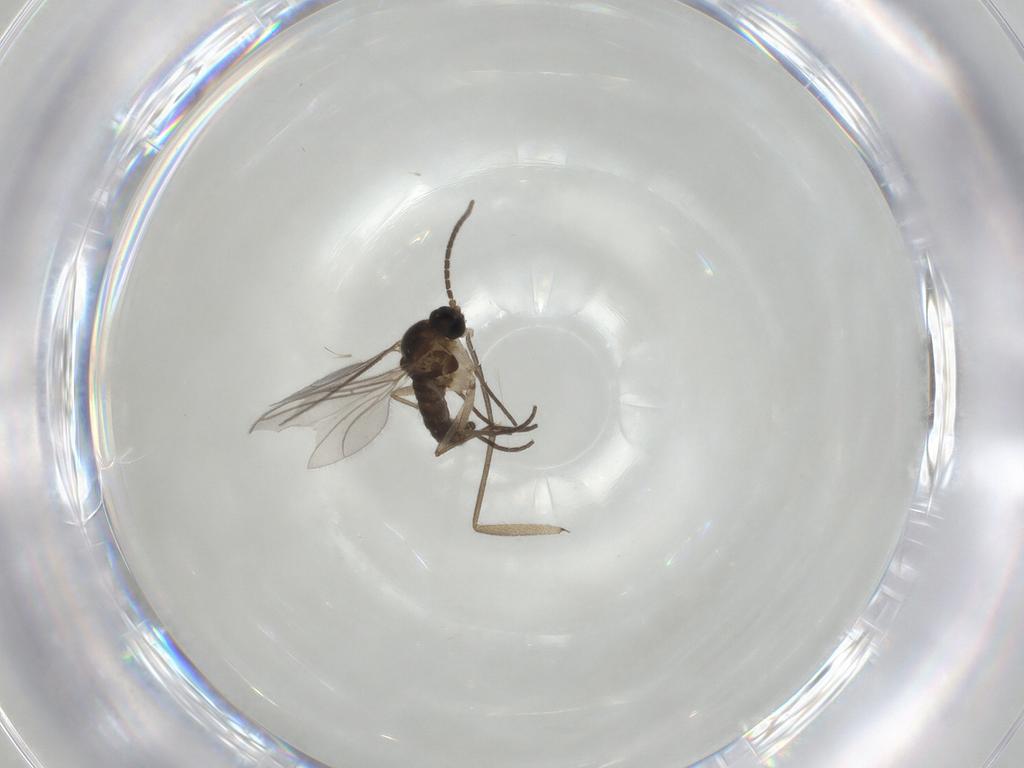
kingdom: Animalia
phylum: Arthropoda
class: Insecta
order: Diptera
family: Sciaridae
